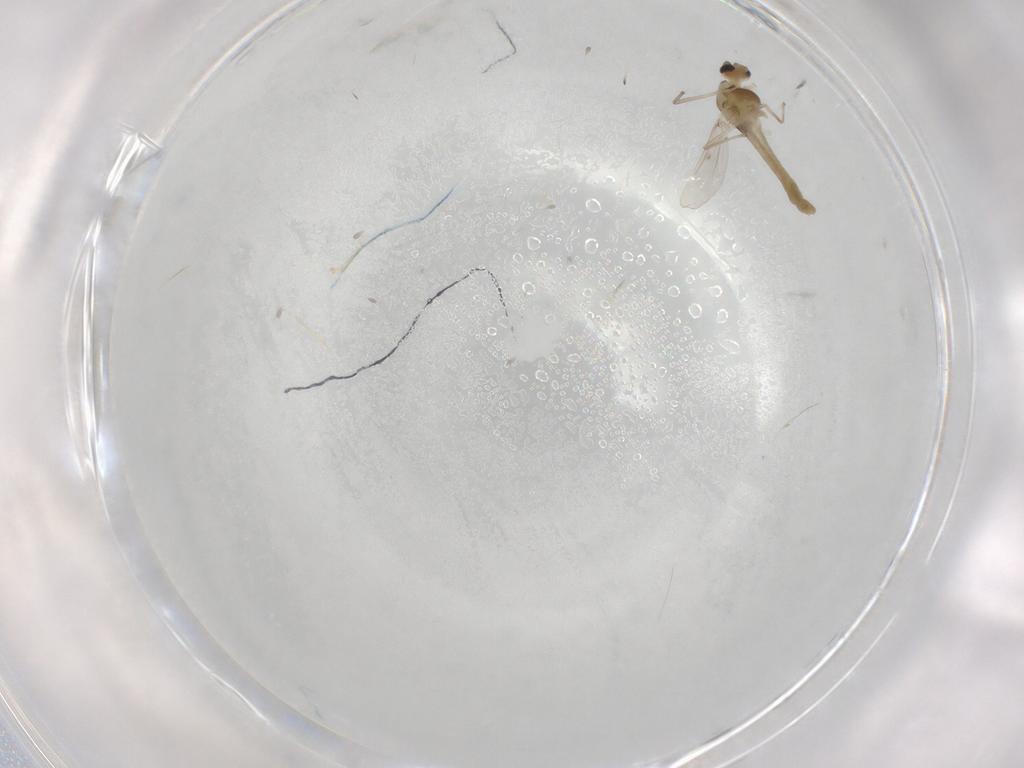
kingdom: Animalia
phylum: Arthropoda
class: Insecta
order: Diptera
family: Chironomidae
